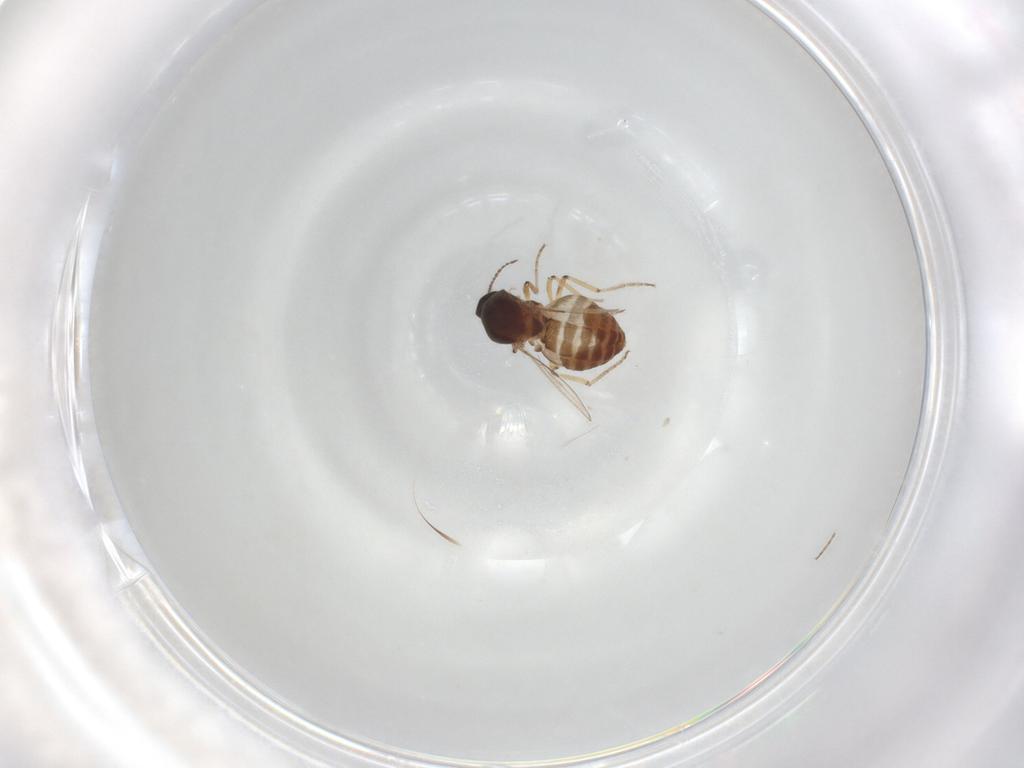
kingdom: Animalia
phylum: Arthropoda
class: Insecta
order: Diptera
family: Ceratopogonidae
